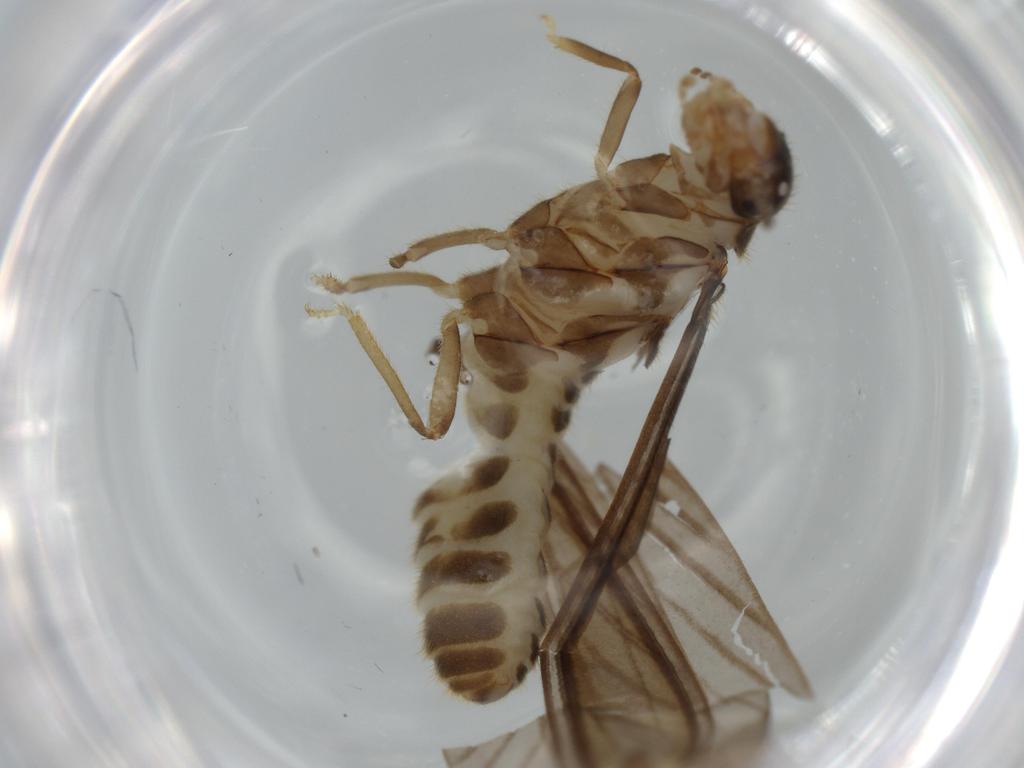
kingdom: Animalia
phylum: Arthropoda
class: Insecta
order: Blattodea
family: Termitidae
